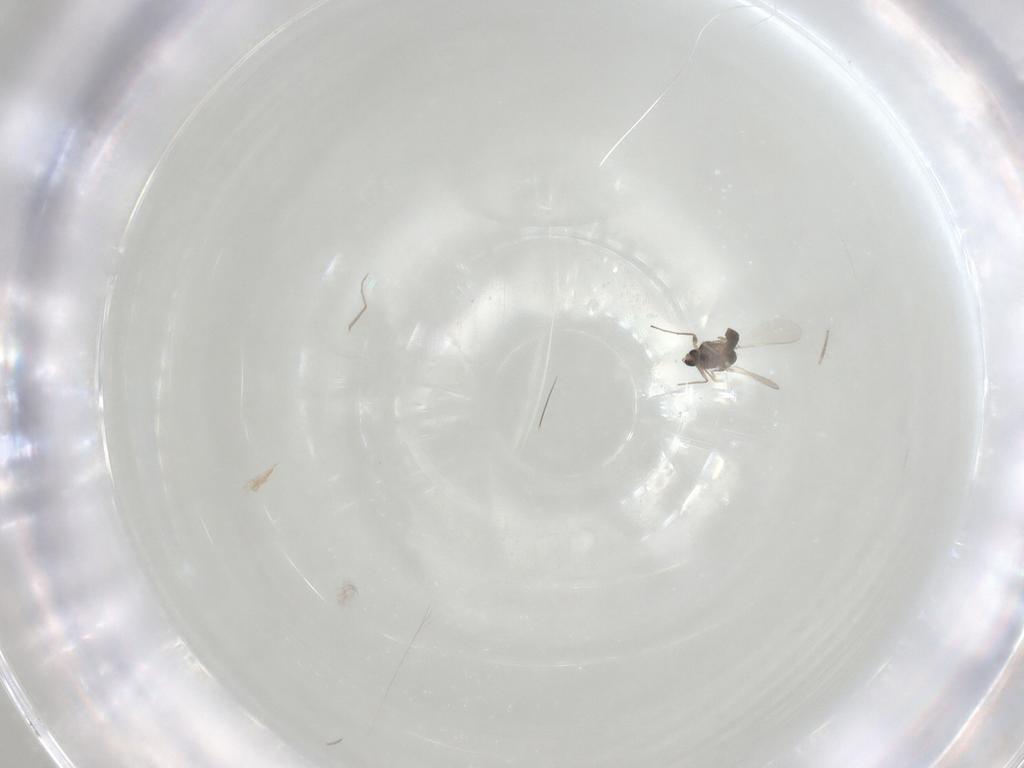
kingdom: Animalia
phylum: Arthropoda
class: Insecta
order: Diptera
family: Chironomidae
